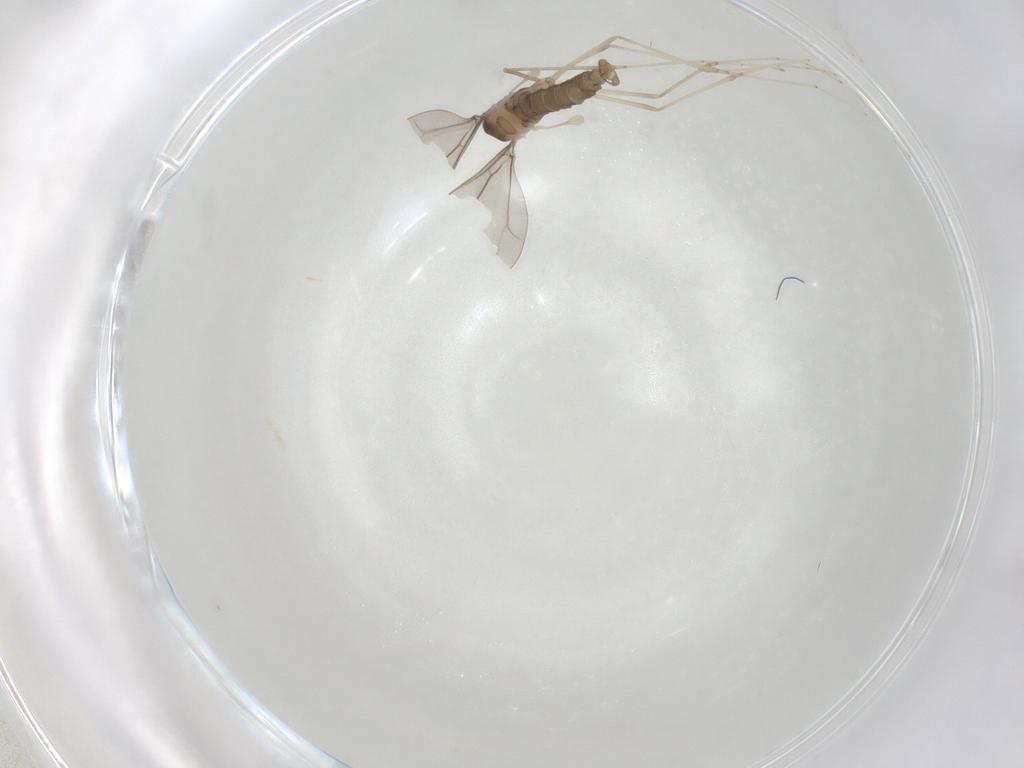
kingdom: Animalia
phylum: Arthropoda
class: Insecta
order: Diptera
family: Cecidomyiidae
